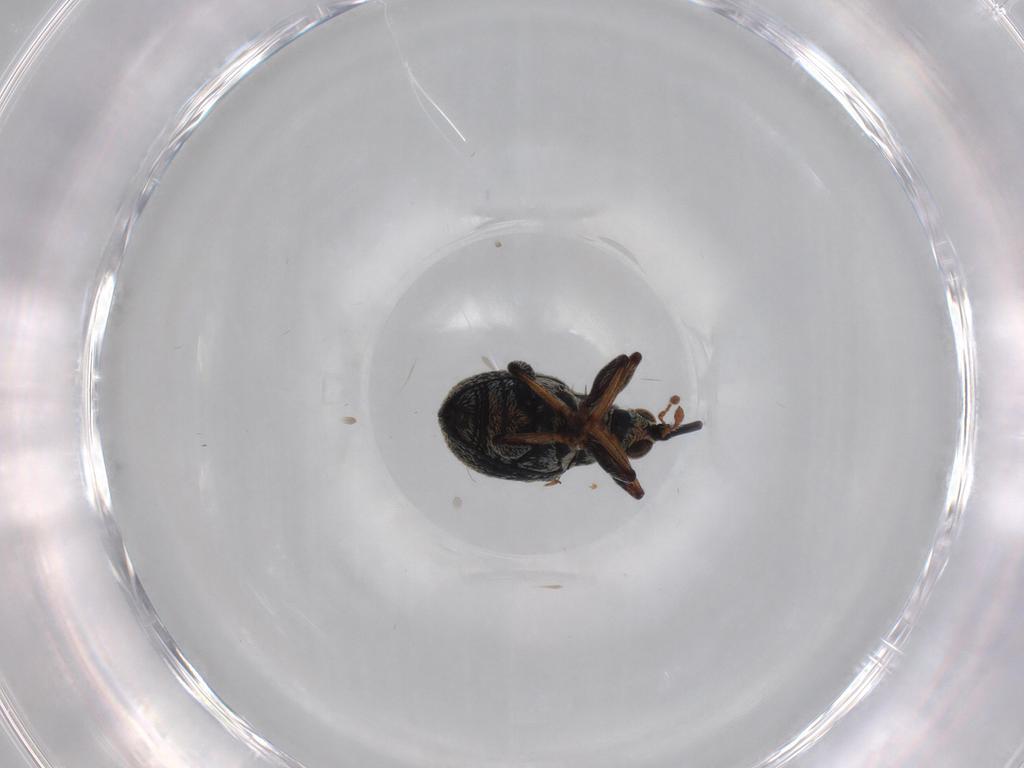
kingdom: Animalia
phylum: Arthropoda
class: Insecta
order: Coleoptera
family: Brentidae
